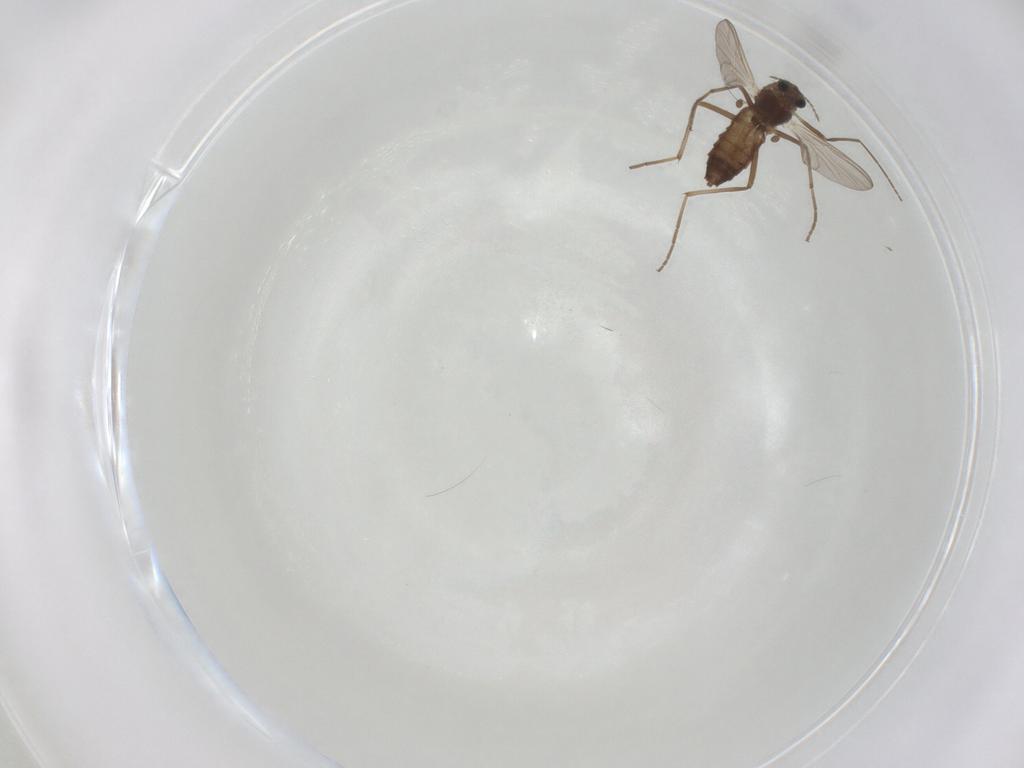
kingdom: Animalia
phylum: Arthropoda
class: Insecta
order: Diptera
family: Chironomidae
